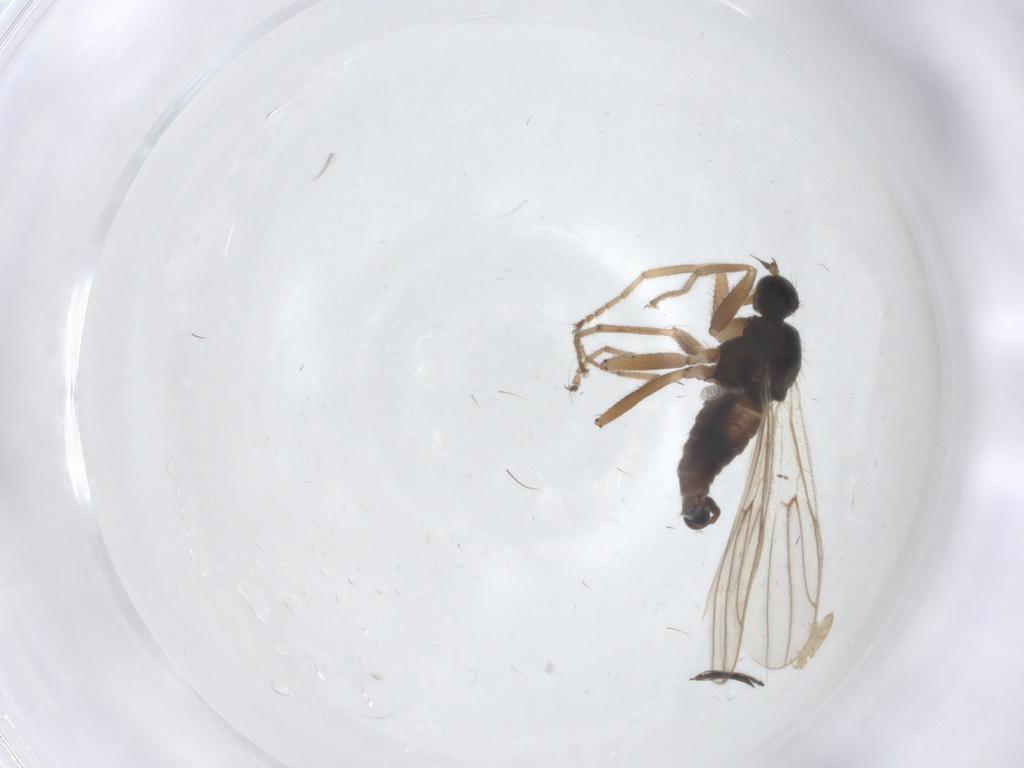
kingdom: Animalia
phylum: Arthropoda
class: Insecta
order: Diptera
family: Hybotidae
